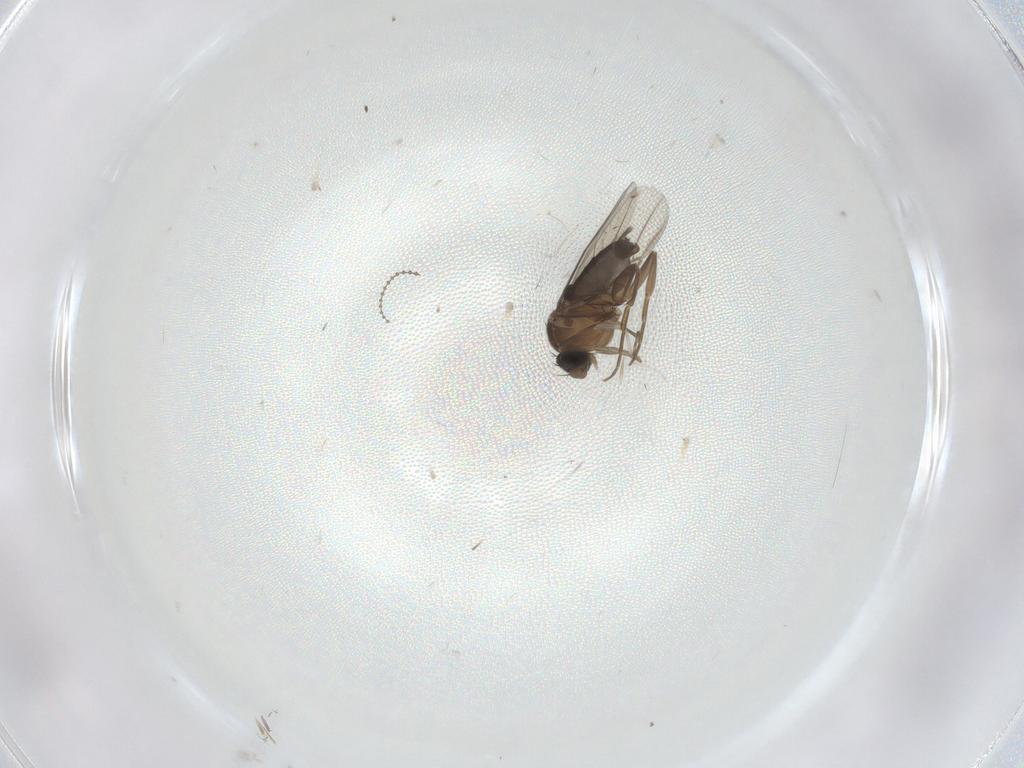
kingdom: Animalia
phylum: Arthropoda
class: Insecta
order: Diptera
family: Phoridae
